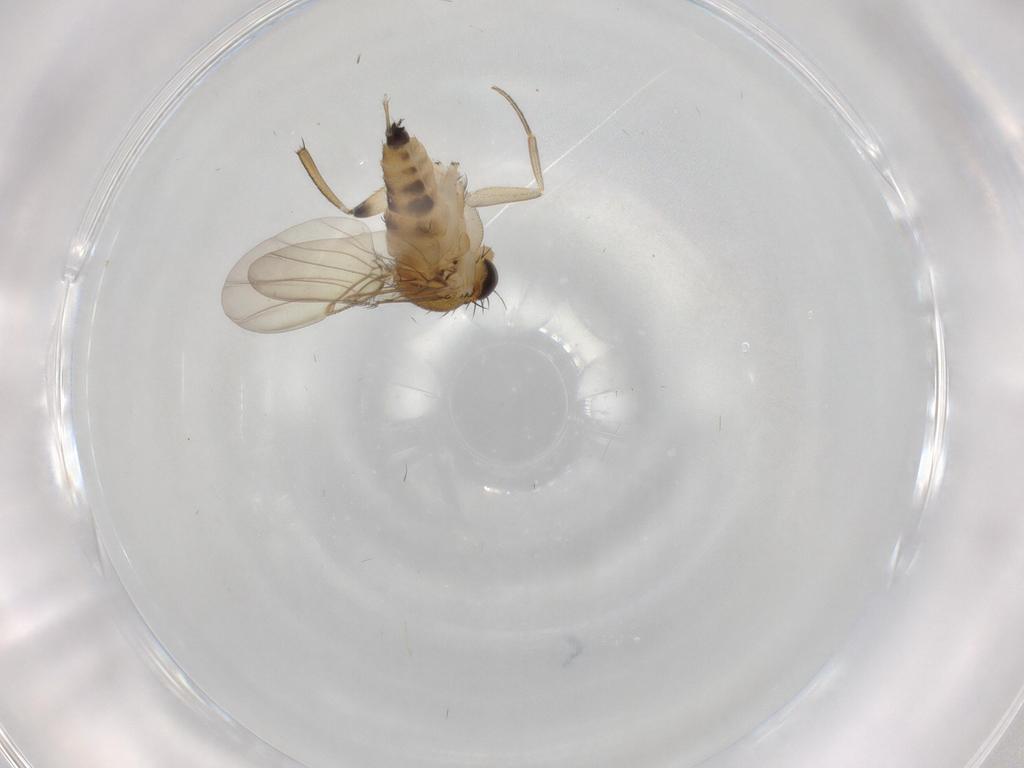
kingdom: Animalia
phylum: Arthropoda
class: Insecta
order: Diptera
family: Phoridae
